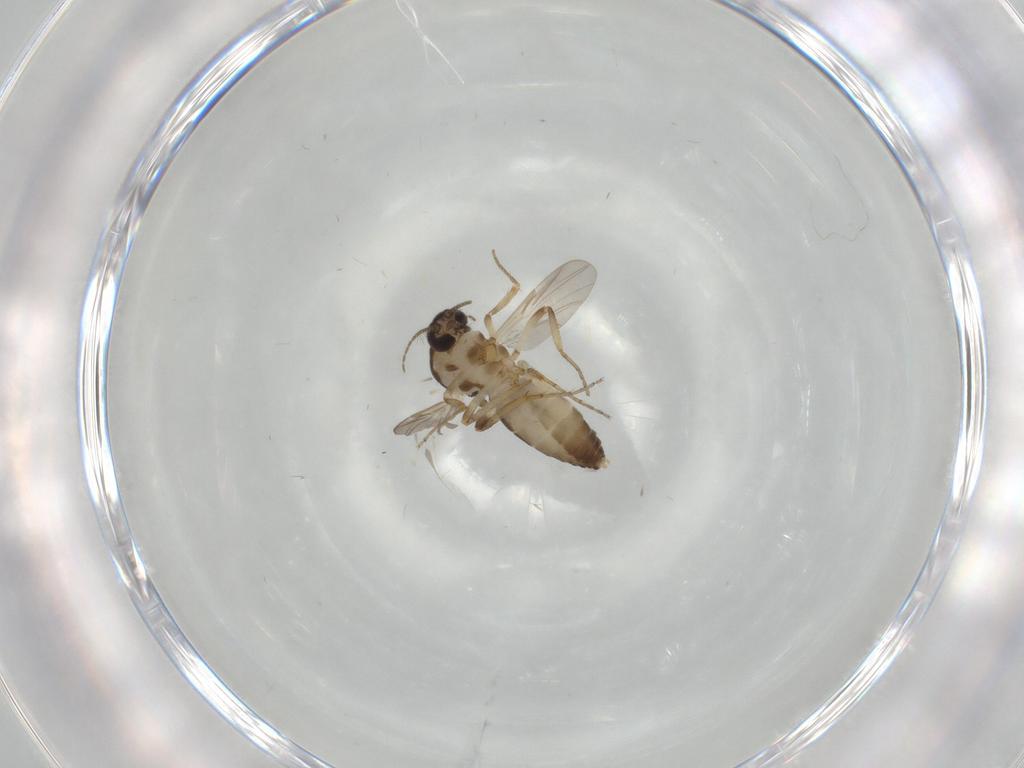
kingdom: Animalia
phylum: Arthropoda
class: Insecta
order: Diptera
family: Ceratopogonidae
